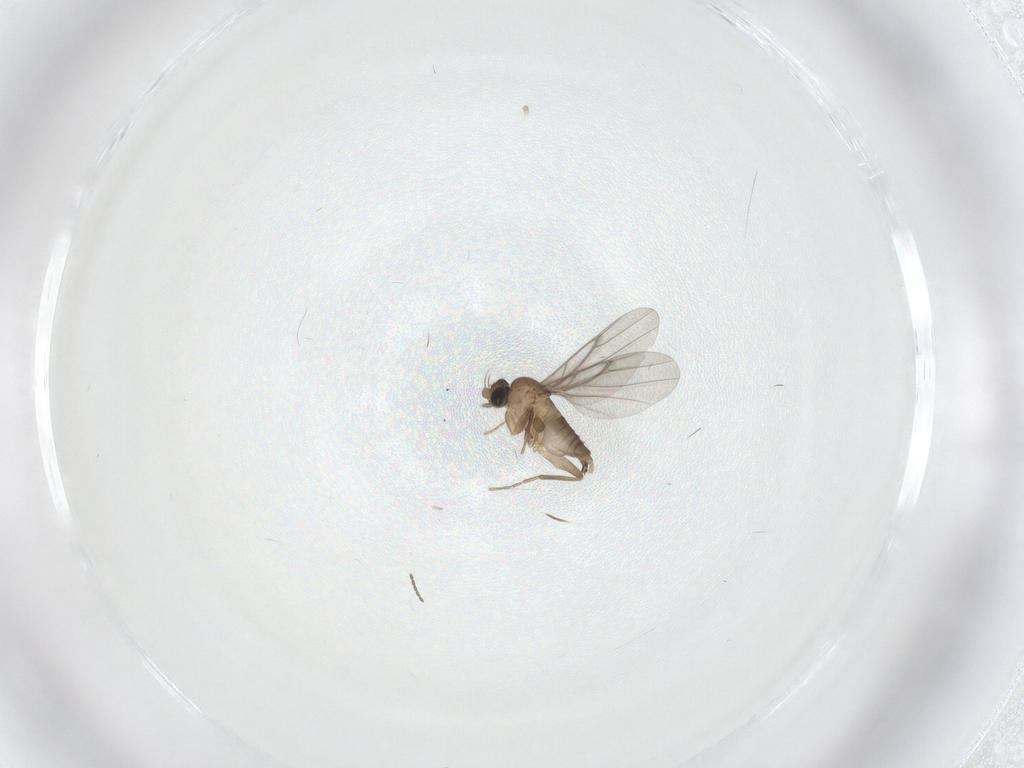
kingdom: Animalia
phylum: Arthropoda
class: Insecta
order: Diptera
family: Cecidomyiidae
